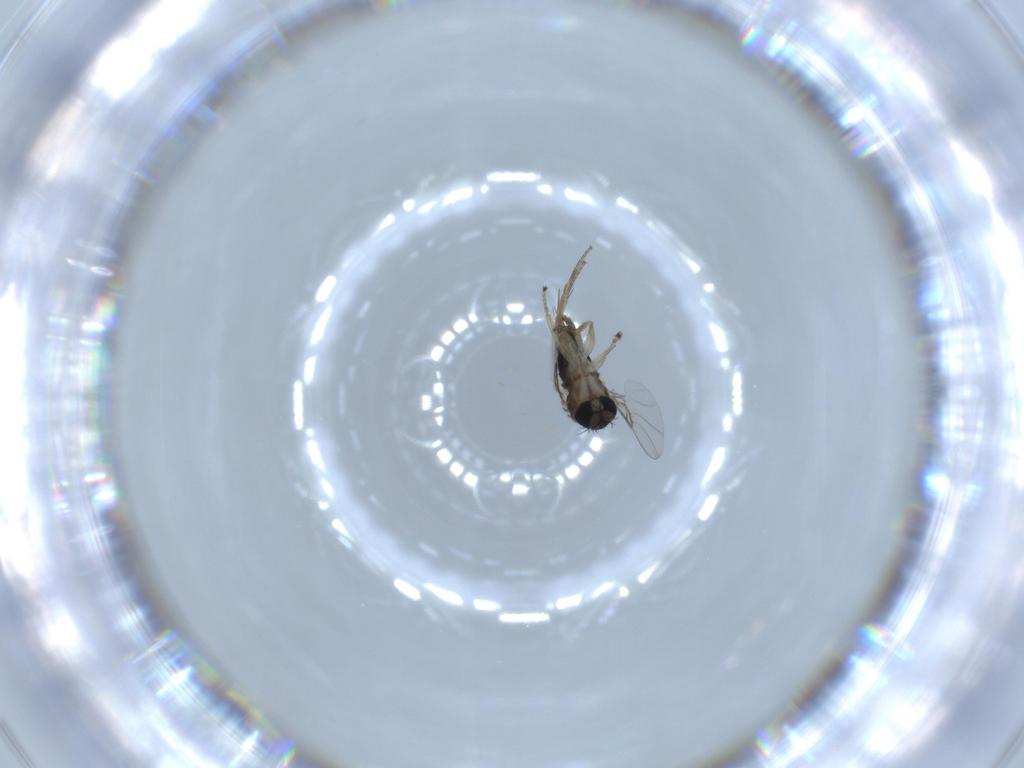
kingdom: Animalia
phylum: Arthropoda
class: Insecta
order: Diptera
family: Phoridae
